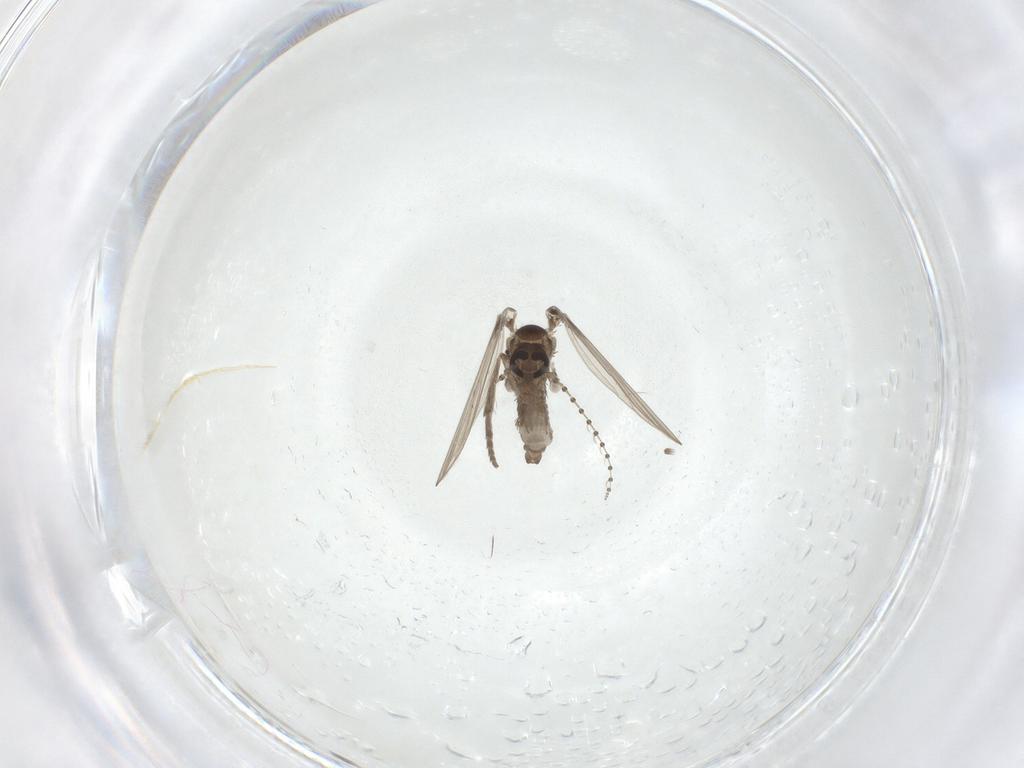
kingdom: Animalia
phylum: Arthropoda
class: Insecta
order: Diptera
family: Psychodidae
